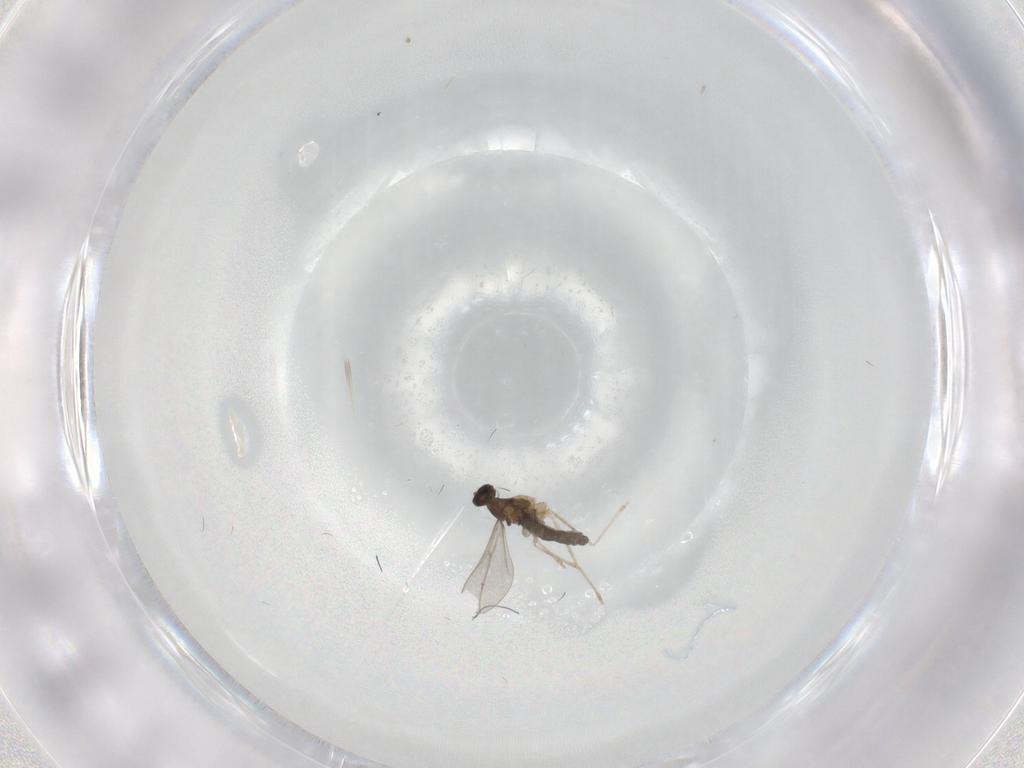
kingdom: Animalia
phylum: Arthropoda
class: Insecta
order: Diptera
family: Cecidomyiidae
